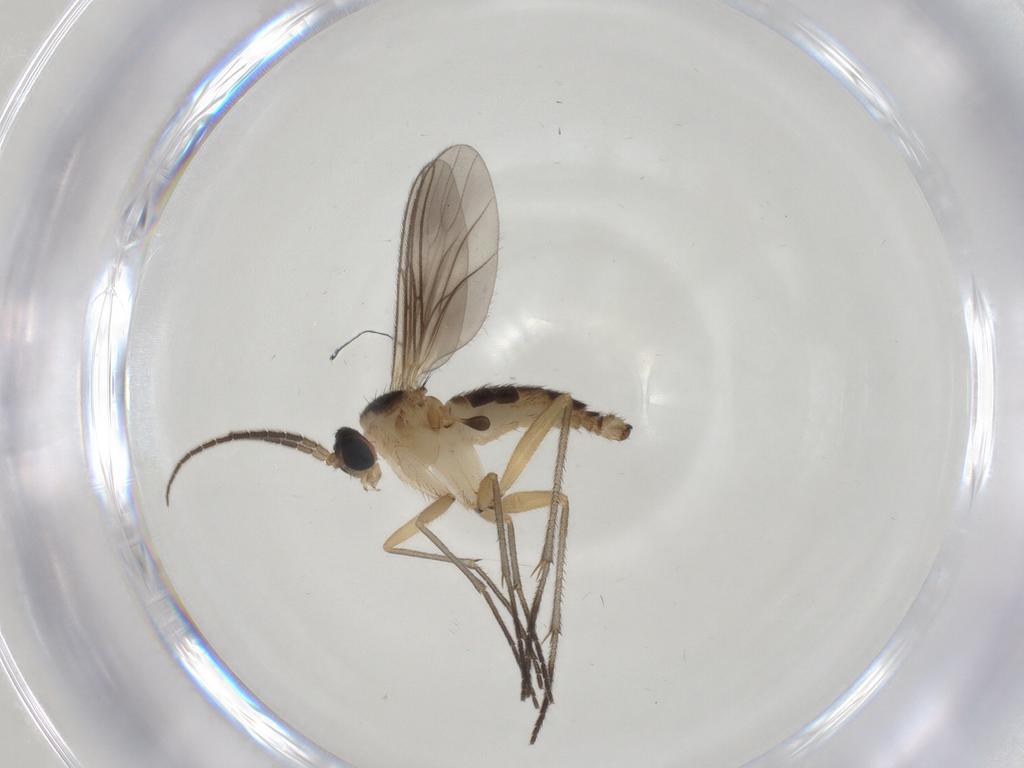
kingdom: Animalia
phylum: Arthropoda
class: Insecta
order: Diptera
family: Sciaridae
